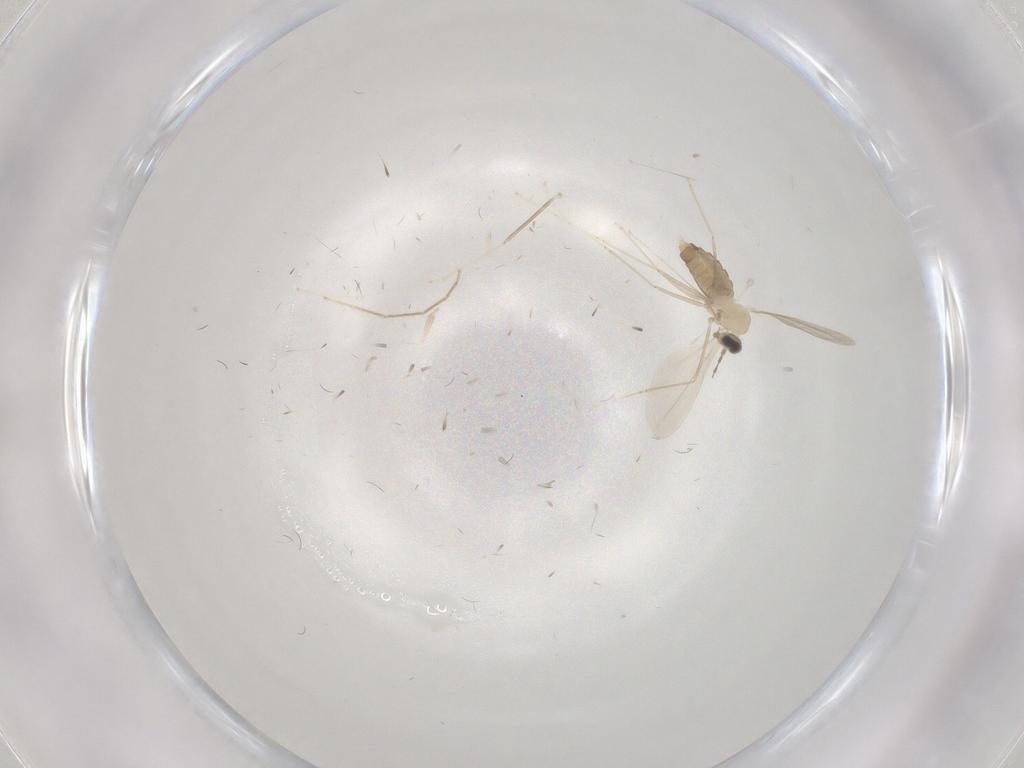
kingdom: Animalia
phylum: Arthropoda
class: Insecta
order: Diptera
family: Cecidomyiidae
